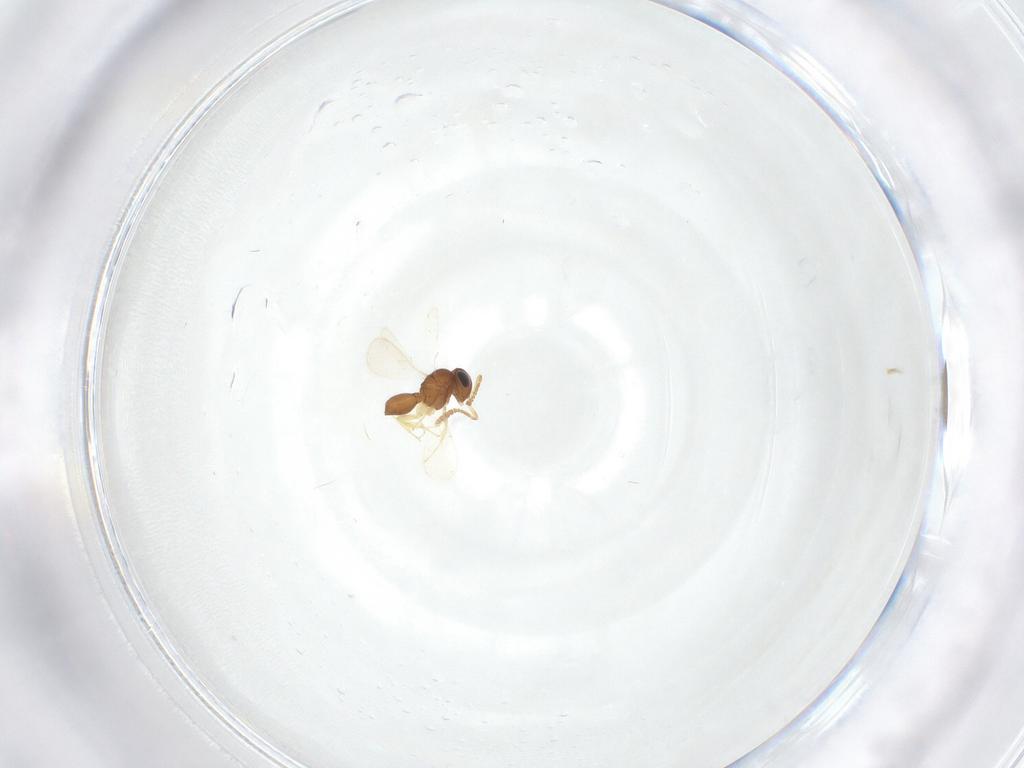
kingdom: Animalia
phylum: Arthropoda
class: Insecta
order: Hymenoptera
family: Scelionidae
